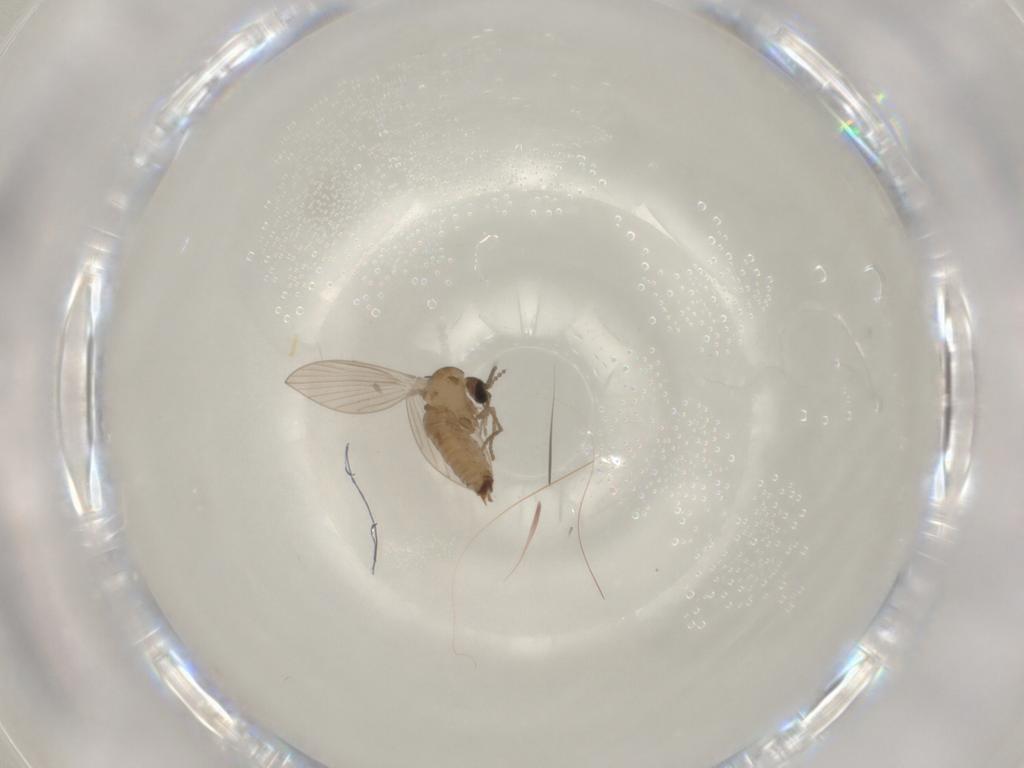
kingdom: Animalia
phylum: Arthropoda
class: Insecta
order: Diptera
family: Psychodidae
